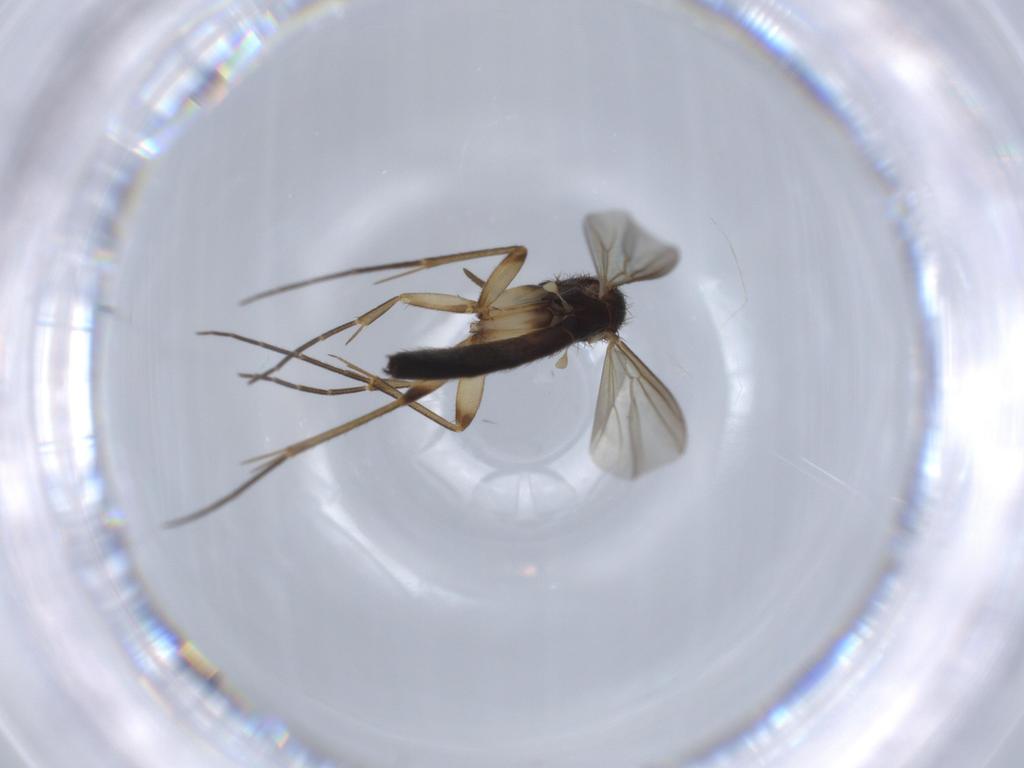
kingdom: Animalia
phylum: Arthropoda
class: Insecta
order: Diptera
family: Mycetophilidae
